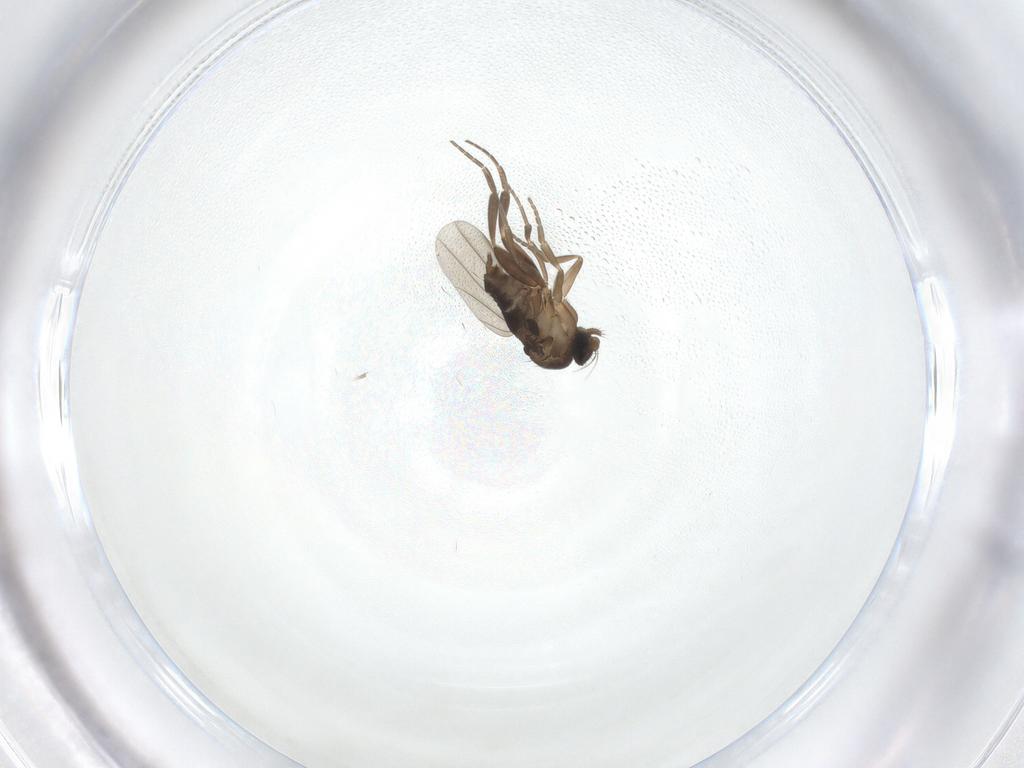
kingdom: Animalia
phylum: Arthropoda
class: Insecta
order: Diptera
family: Phoridae
